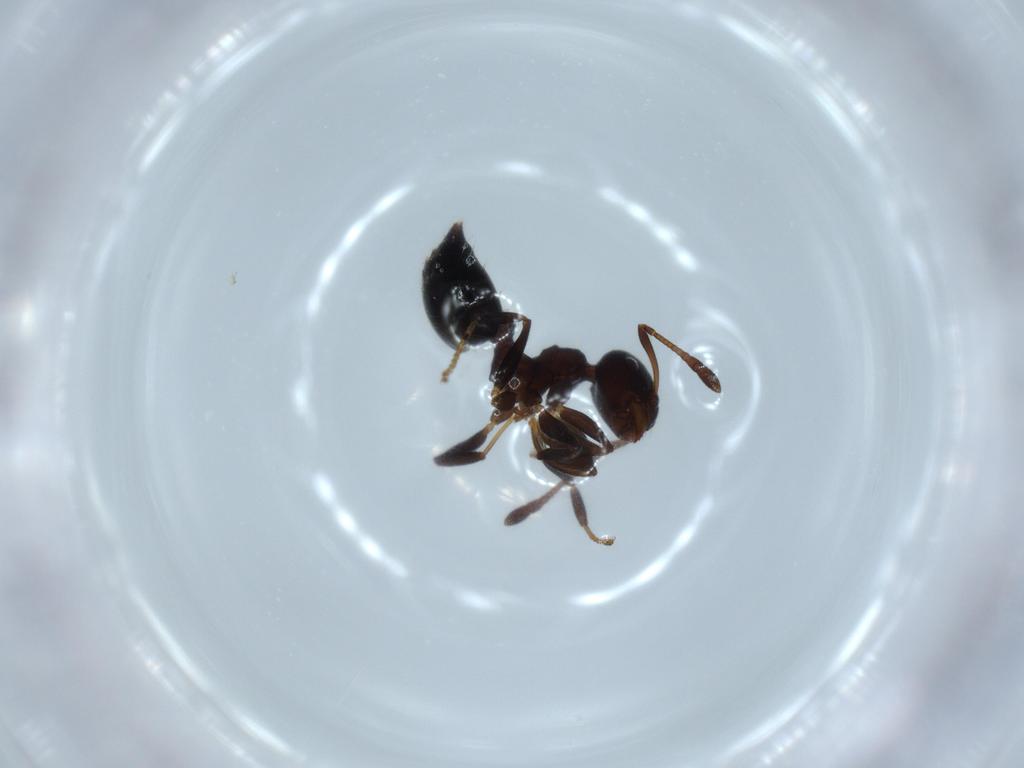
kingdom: Animalia
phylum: Arthropoda
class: Insecta
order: Hymenoptera
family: Formicidae
